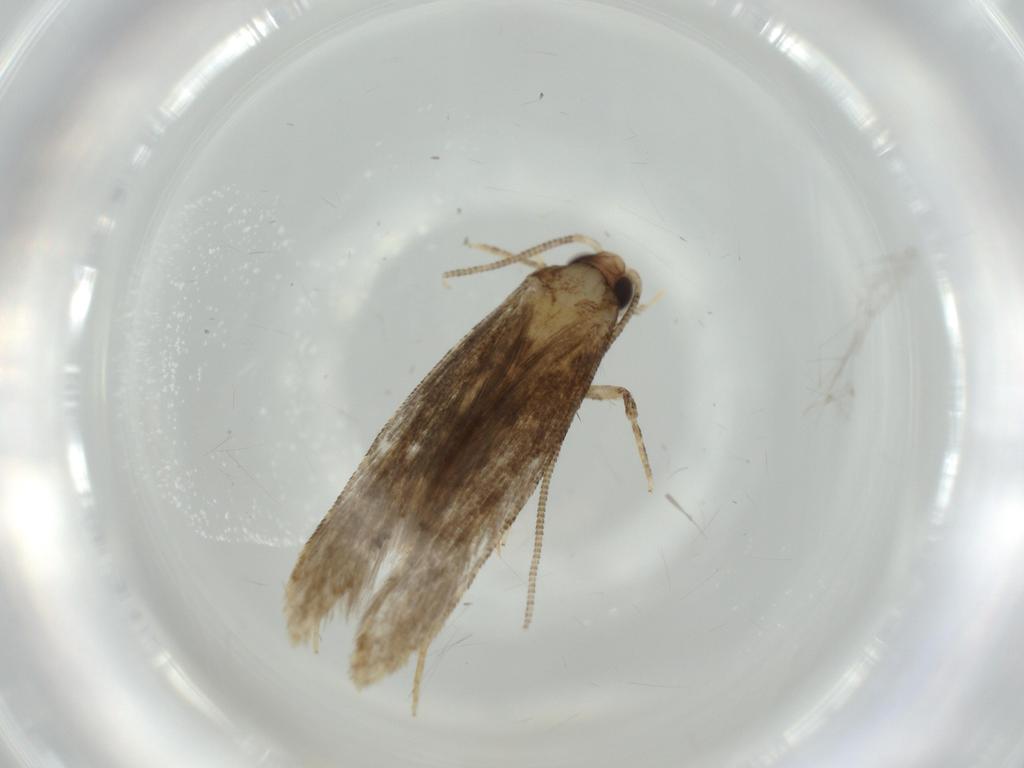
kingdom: Animalia
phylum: Arthropoda
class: Insecta
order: Lepidoptera
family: Tineidae
